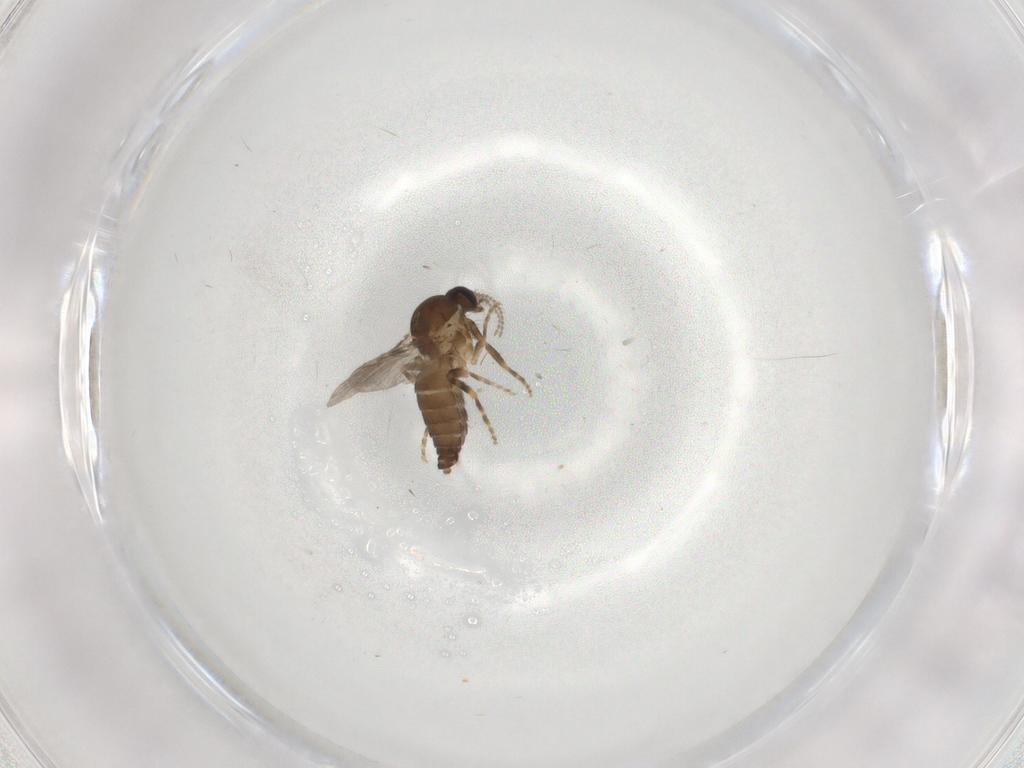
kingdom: Animalia
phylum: Arthropoda
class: Insecta
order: Diptera
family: Ceratopogonidae
